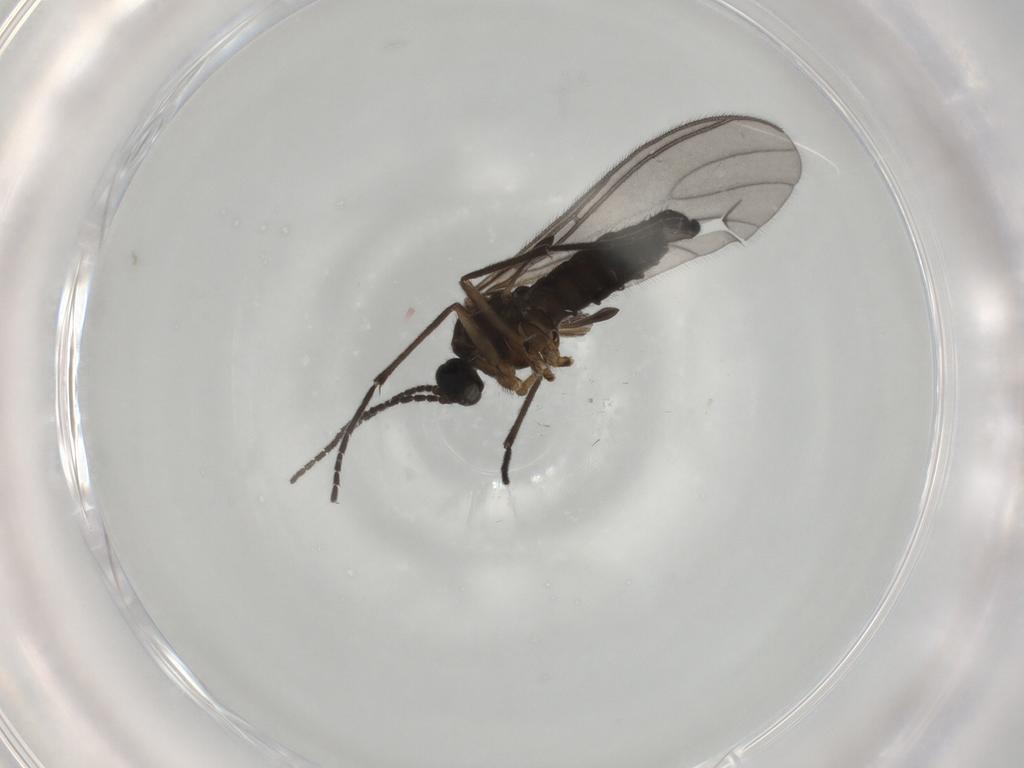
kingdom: Animalia
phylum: Arthropoda
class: Insecta
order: Diptera
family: Sciaridae
